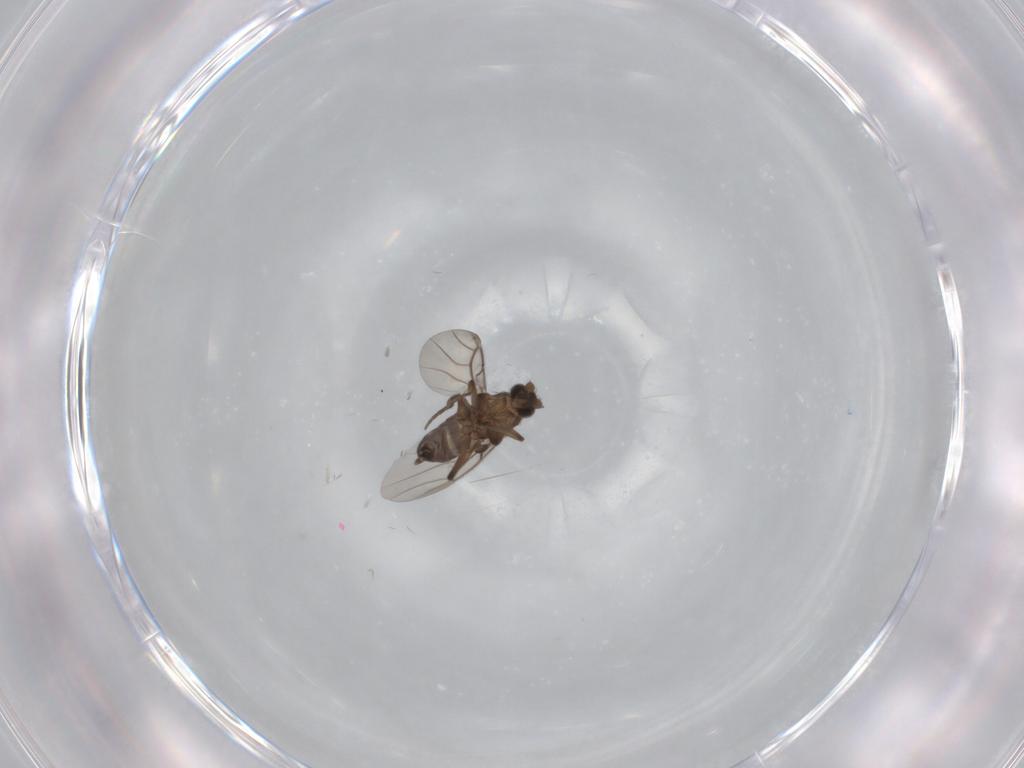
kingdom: Animalia
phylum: Arthropoda
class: Insecta
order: Diptera
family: Phoridae
